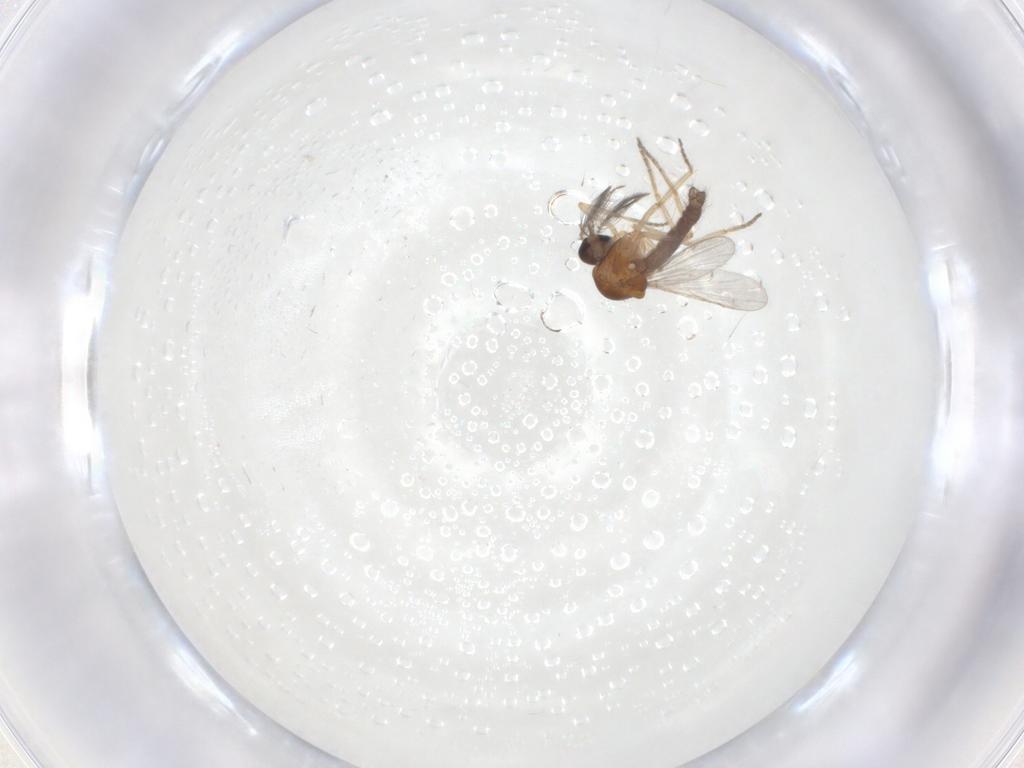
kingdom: Animalia
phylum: Arthropoda
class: Insecta
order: Diptera
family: Ceratopogonidae
